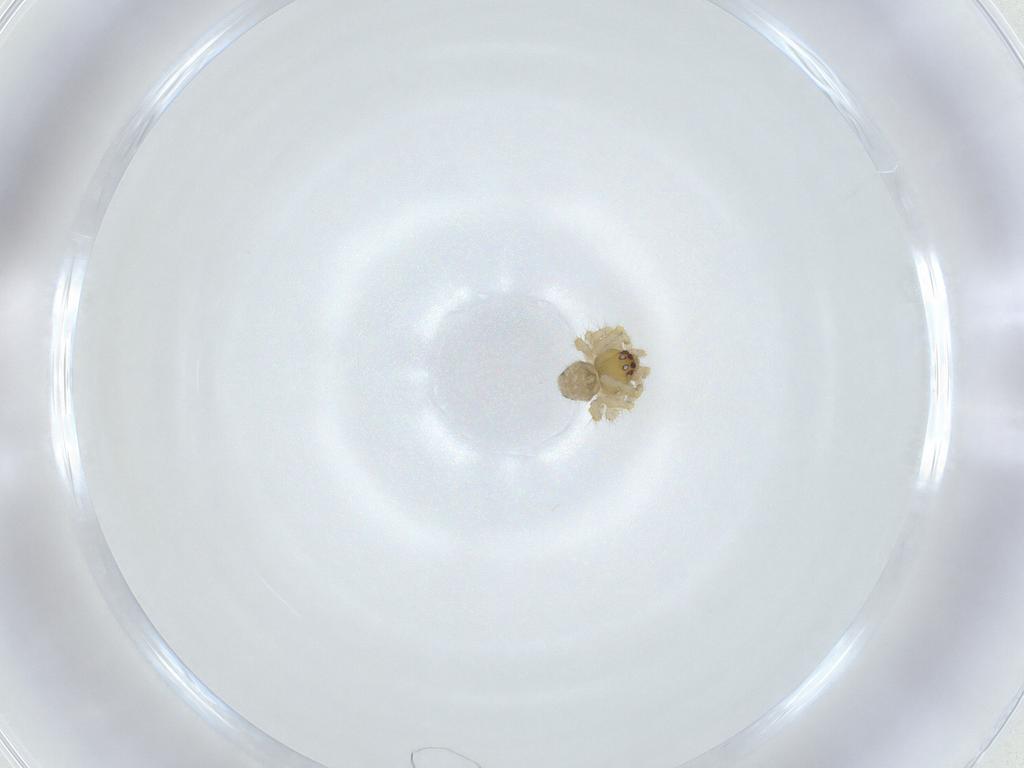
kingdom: Animalia
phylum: Arthropoda
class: Arachnida
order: Araneae
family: Theridiidae
